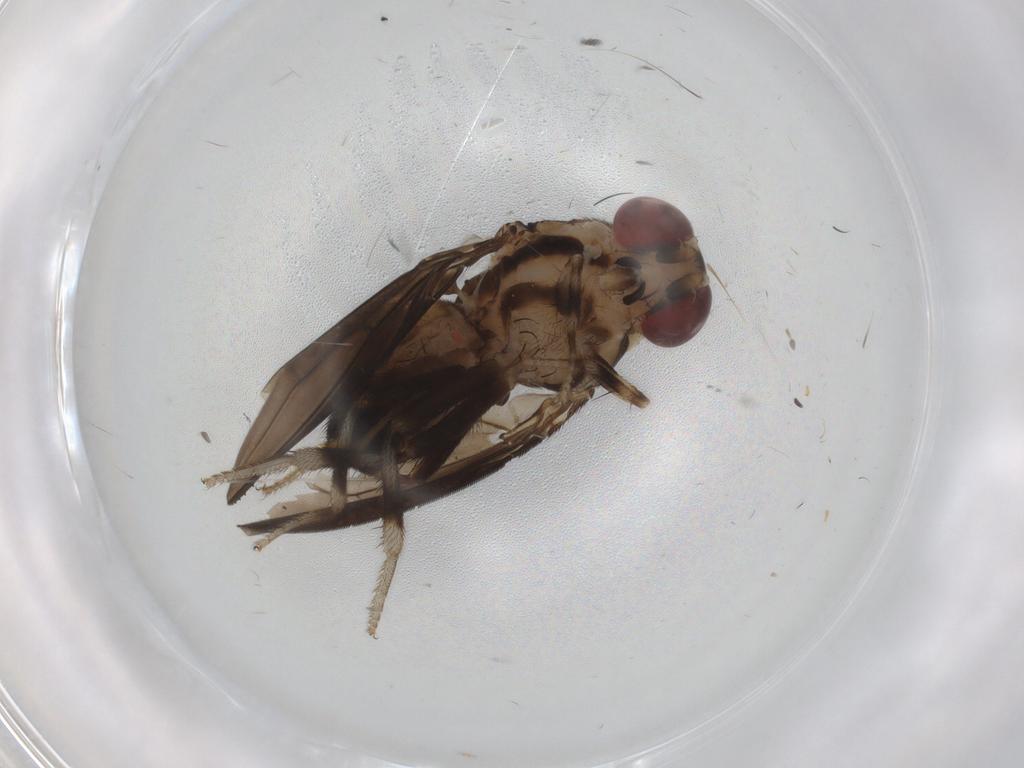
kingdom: Animalia
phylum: Arthropoda
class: Insecta
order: Diptera
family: Drosophilidae
